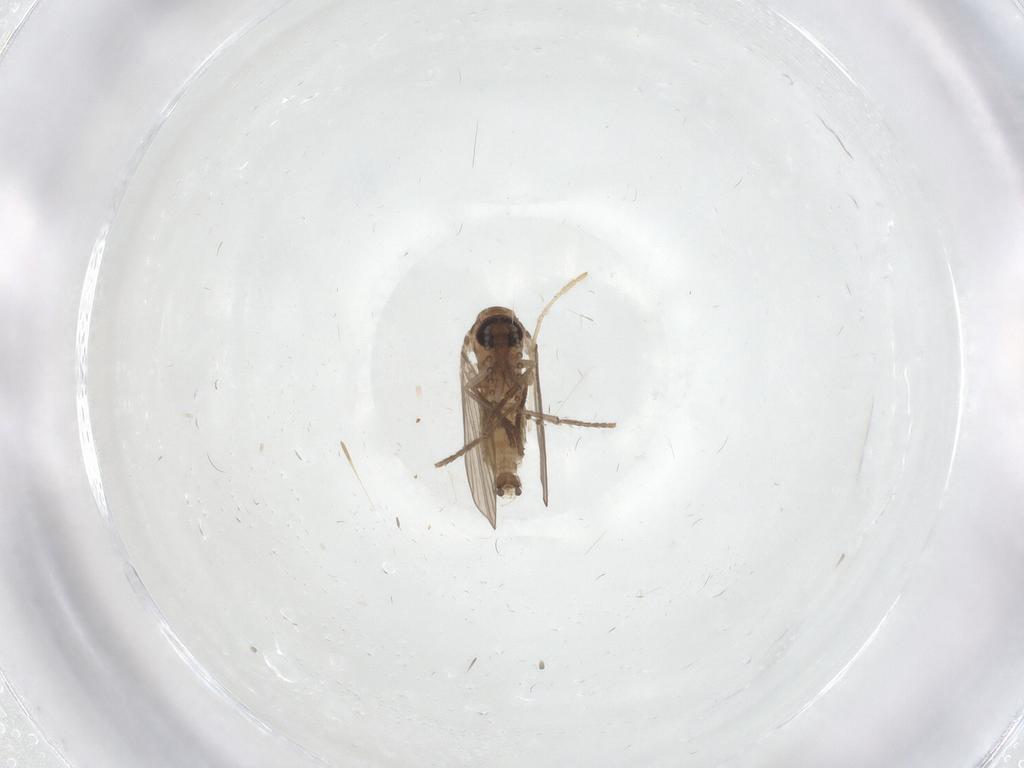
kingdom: Animalia
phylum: Arthropoda
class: Insecta
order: Diptera
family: Psychodidae
